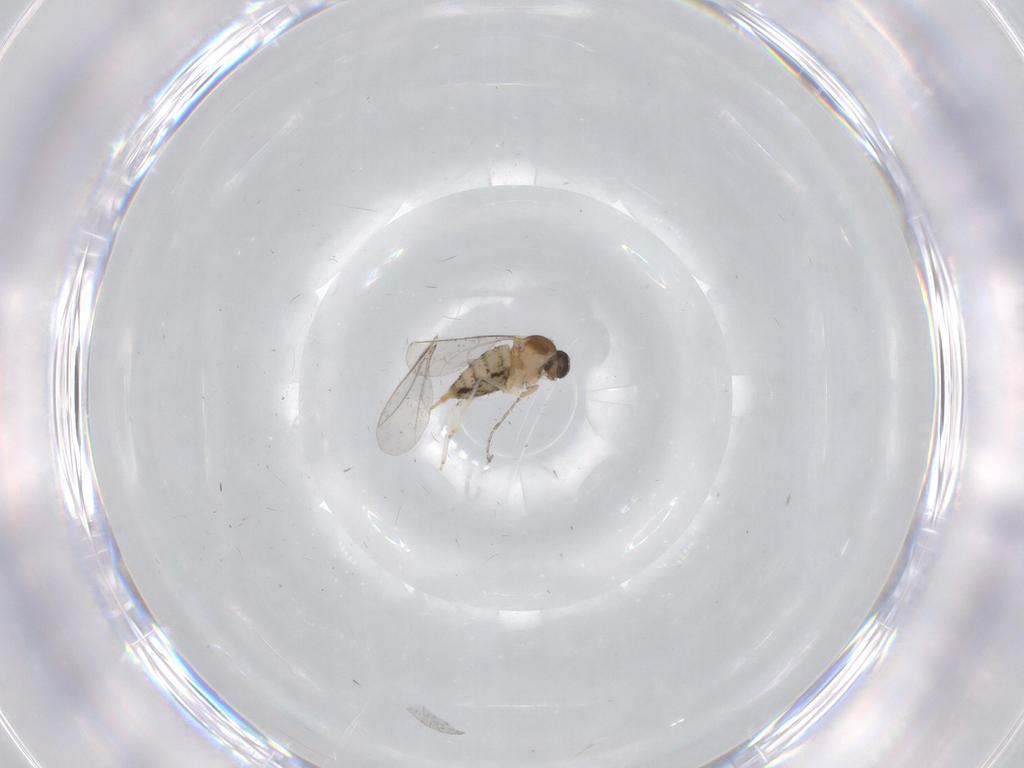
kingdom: Animalia
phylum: Arthropoda
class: Insecta
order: Diptera
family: Cecidomyiidae
